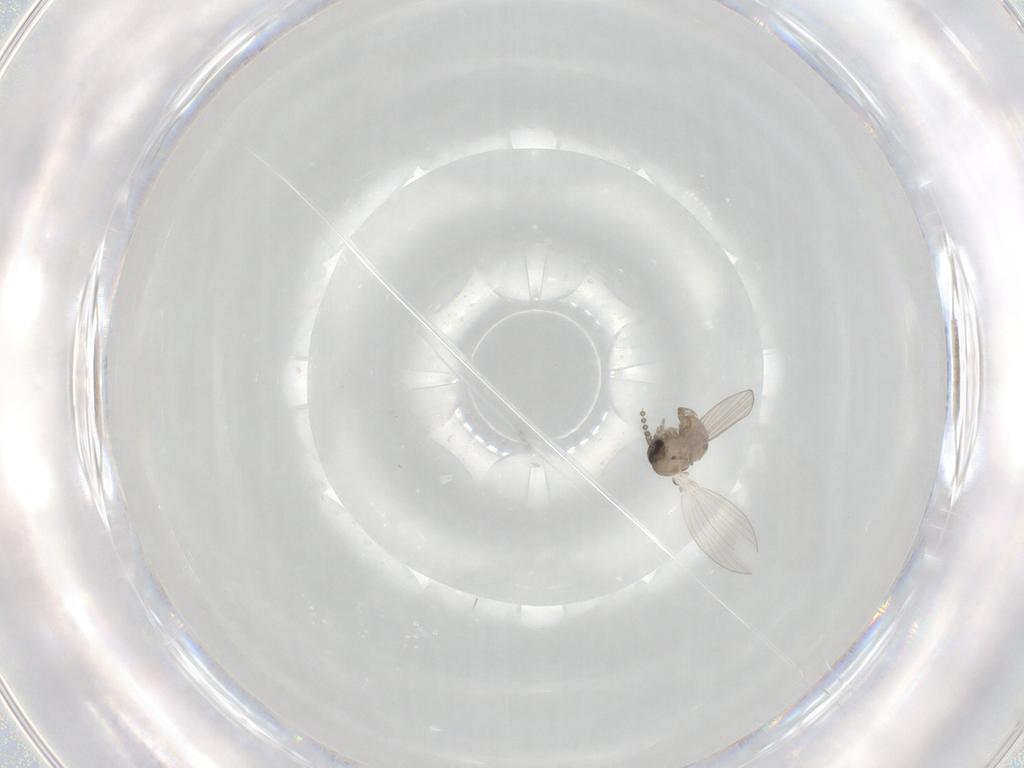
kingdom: Animalia
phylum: Arthropoda
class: Insecta
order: Diptera
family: Psychodidae
